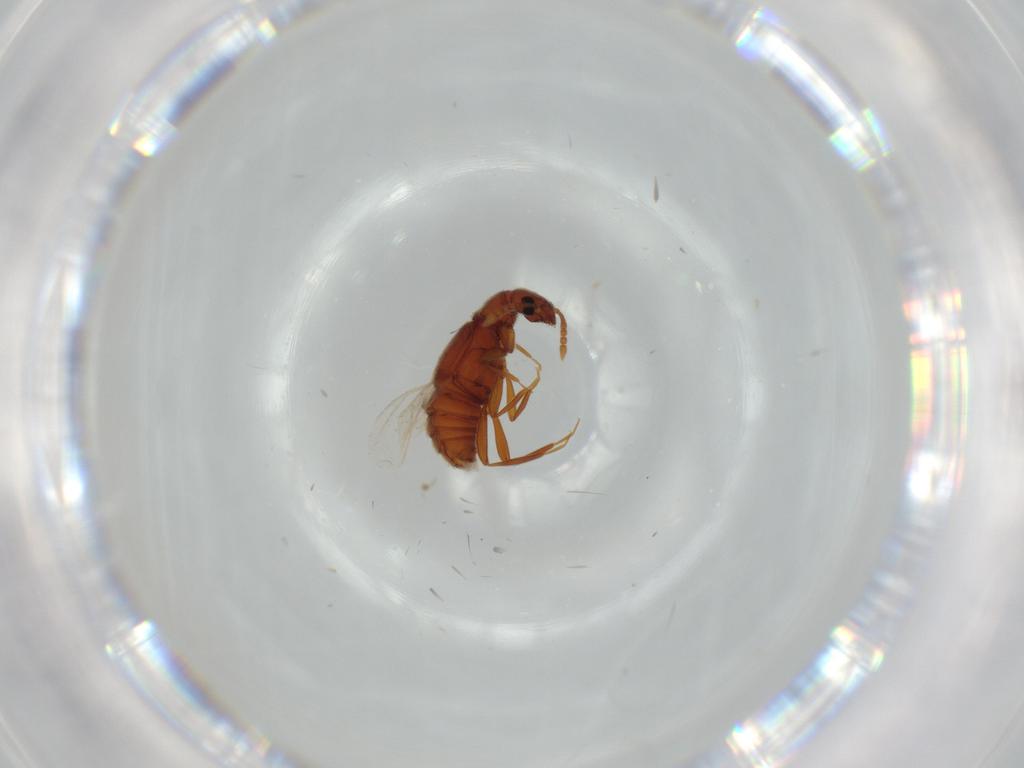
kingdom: Animalia
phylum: Arthropoda
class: Insecta
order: Coleoptera
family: Staphylinidae
